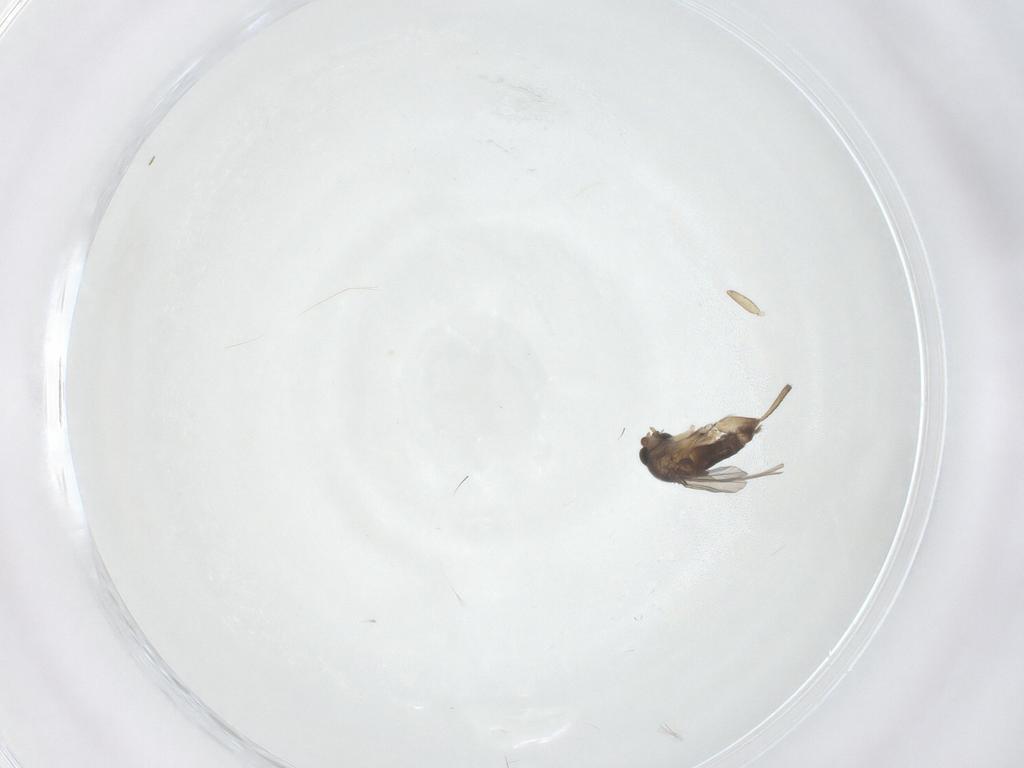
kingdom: Animalia
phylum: Arthropoda
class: Insecta
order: Diptera
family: Phoridae
